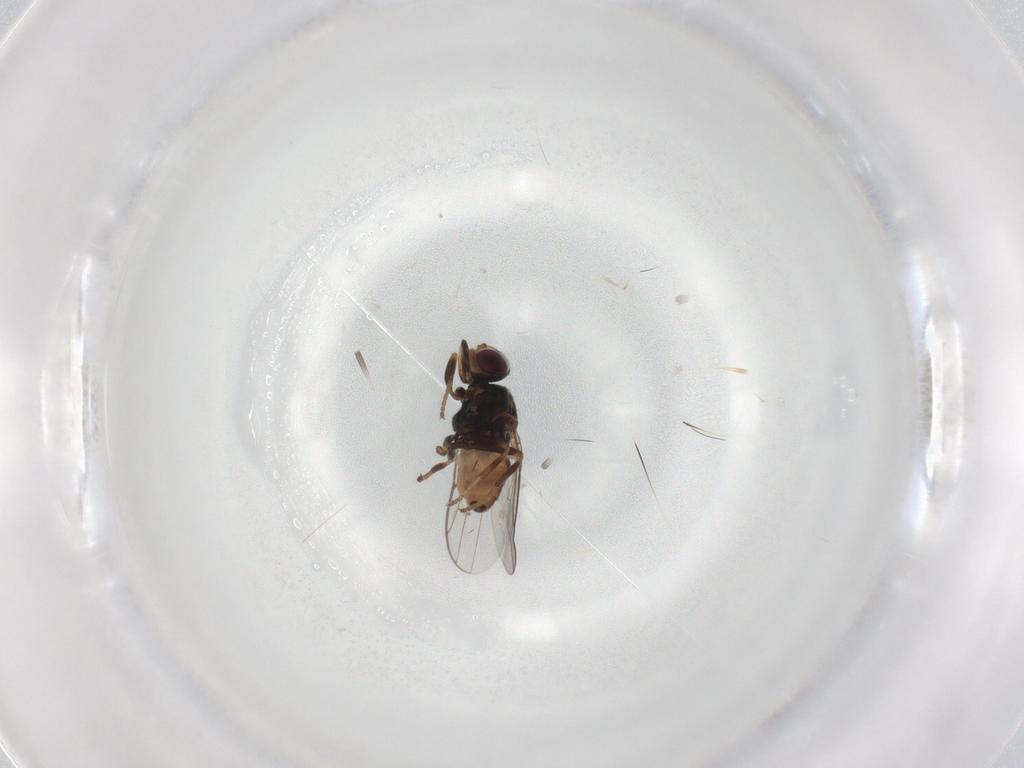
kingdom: Animalia
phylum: Arthropoda
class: Insecta
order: Diptera
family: Chloropidae
